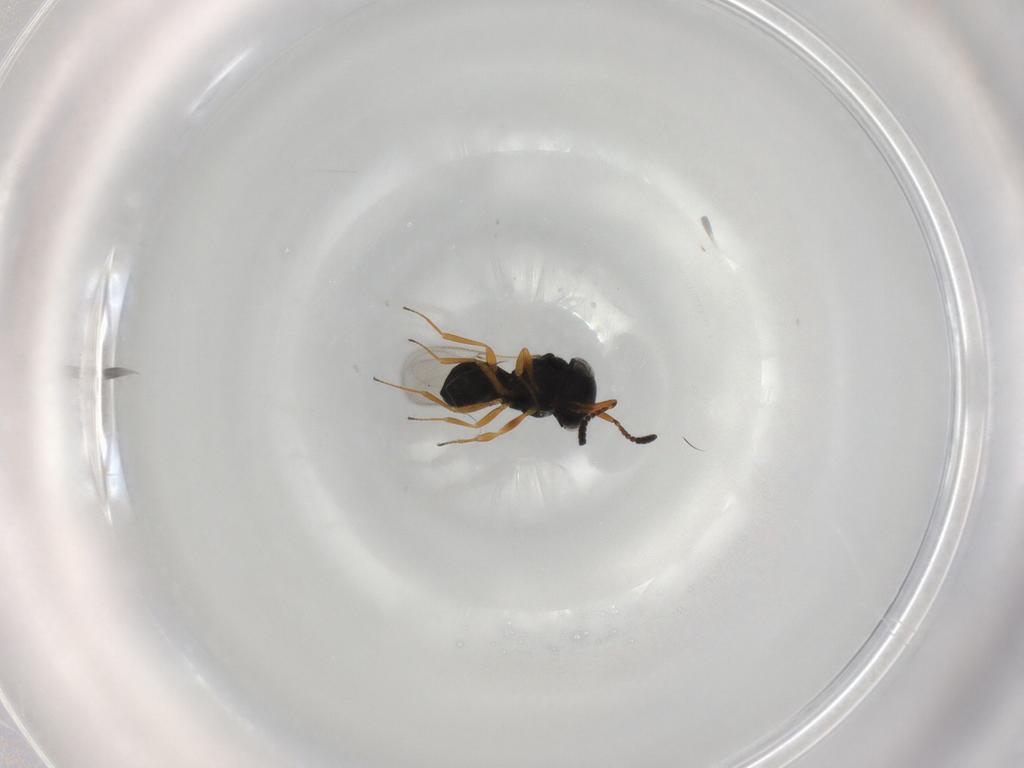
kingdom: Animalia
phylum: Arthropoda
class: Insecta
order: Hymenoptera
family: Scelionidae
